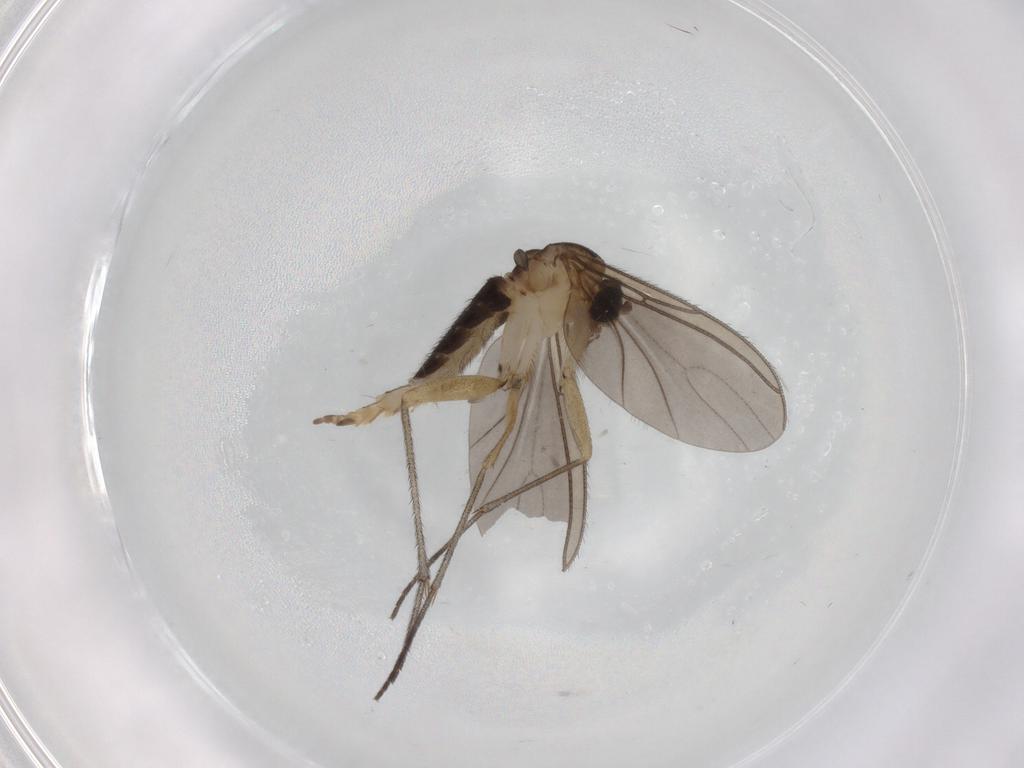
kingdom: Animalia
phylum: Arthropoda
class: Insecta
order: Diptera
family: Sciaridae
